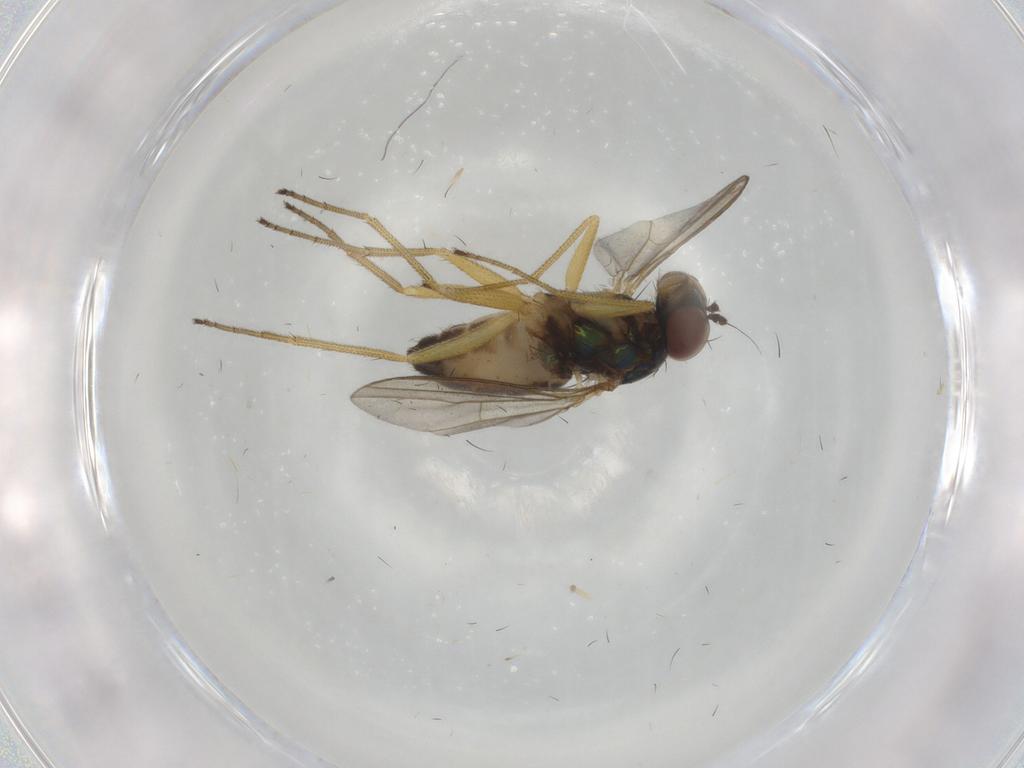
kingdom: Animalia
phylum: Arthropoda
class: Insecta
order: Diptera
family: Dolichopodidae
